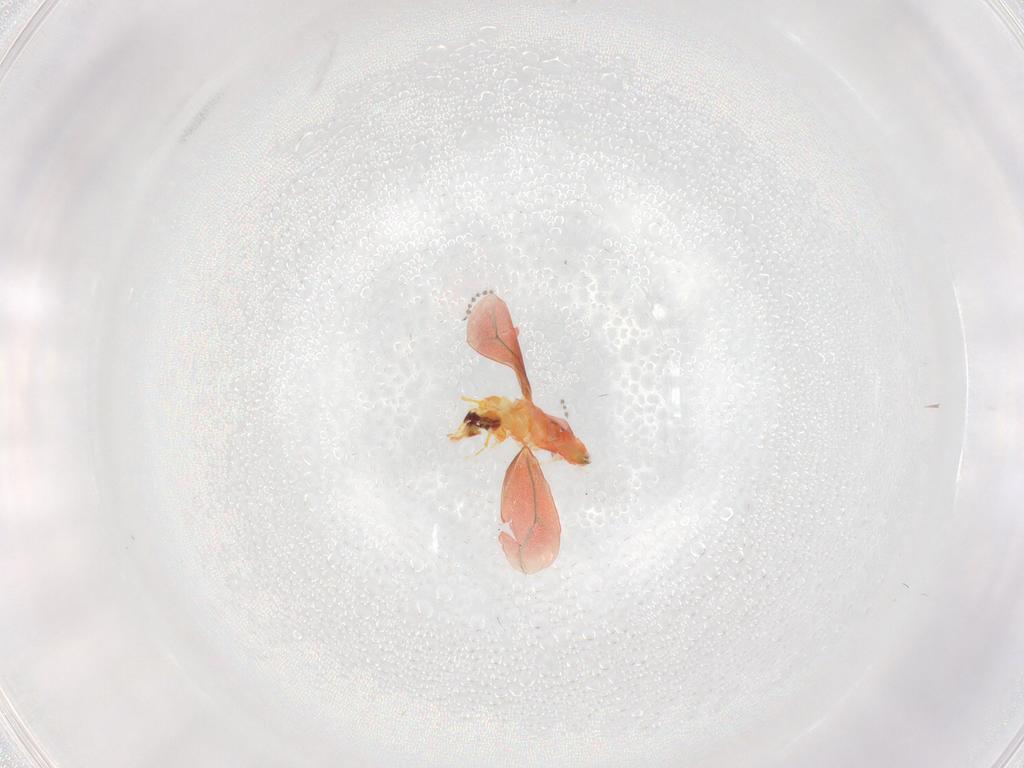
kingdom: Animalia
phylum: Arthropoda
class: Insecta
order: Hemiptera
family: Aleyrodidae
